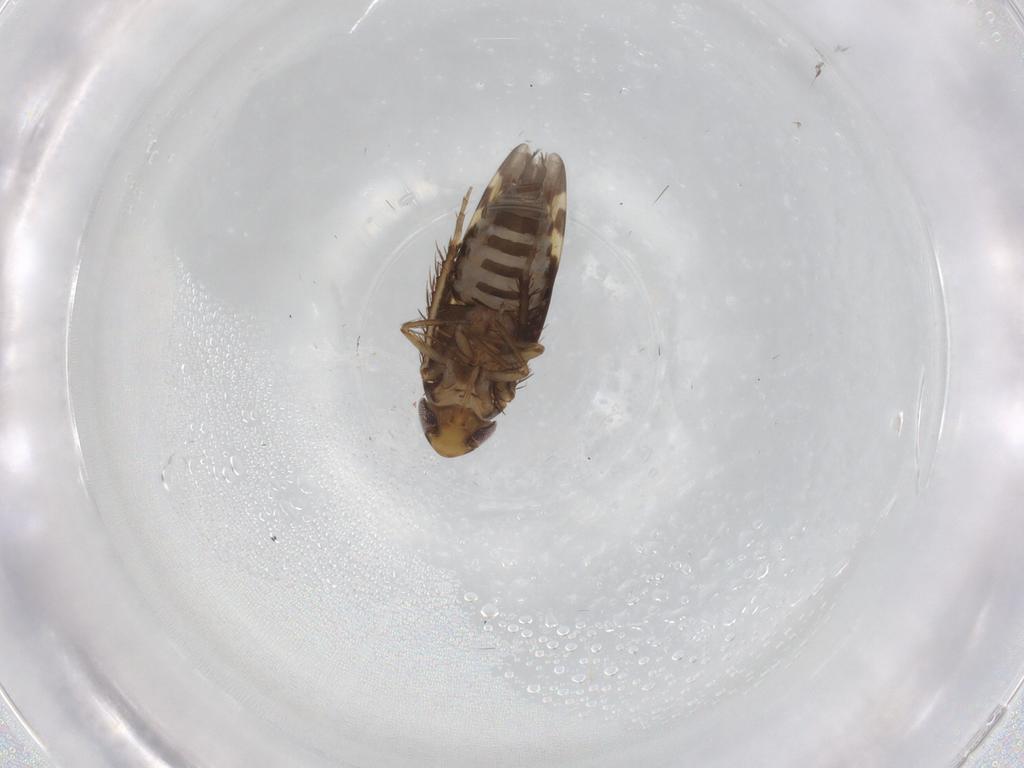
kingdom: Animalia
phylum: Arthropoda
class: Insecta
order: Hemiptera
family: Cicadellidae
